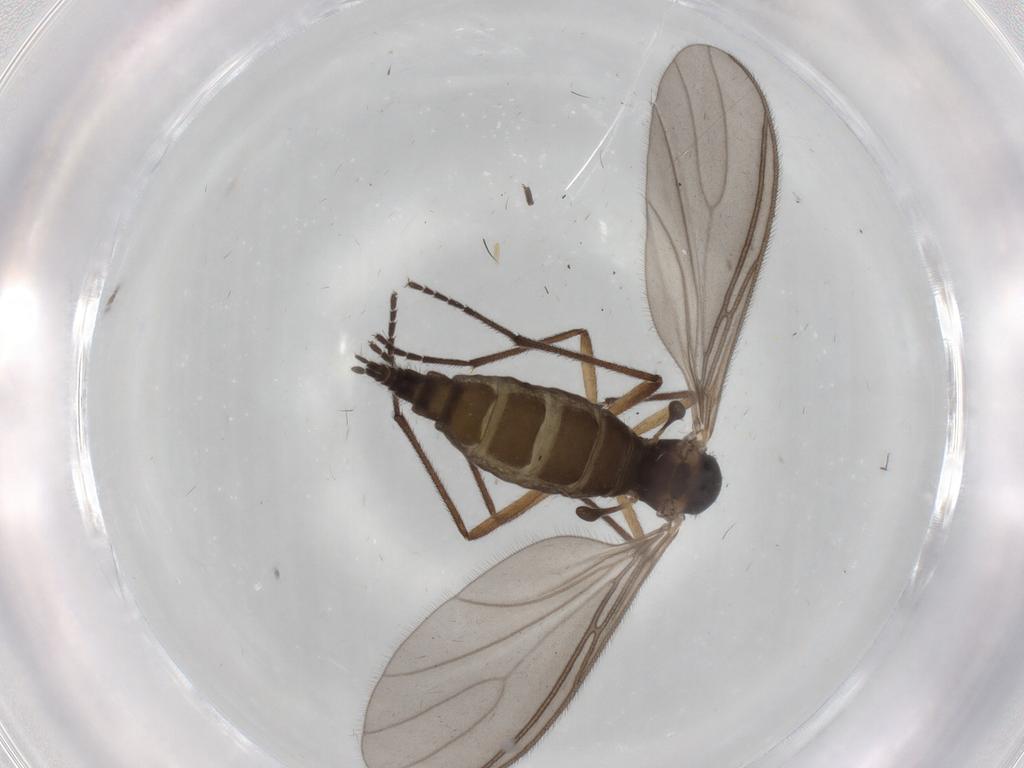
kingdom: Animalia
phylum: Arthropoda
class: Insecta
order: Diptera
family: Sciaridae
